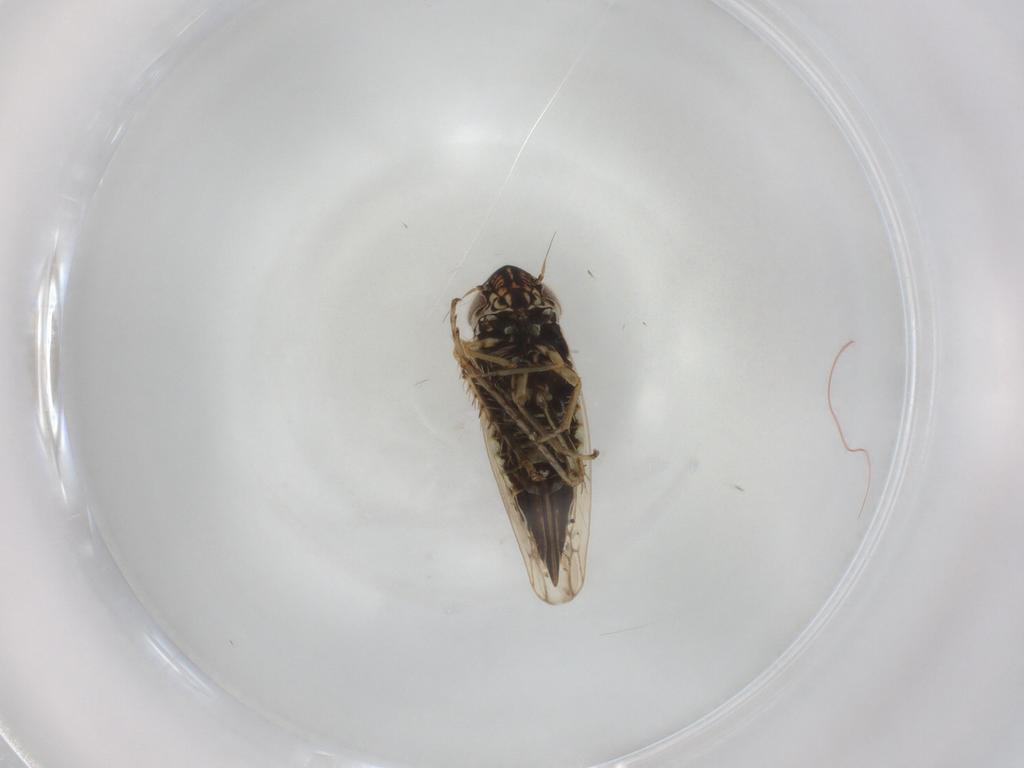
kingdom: Animalia
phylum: Arthropoda
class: Insecta
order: Hemiptera
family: Cicadellidae
